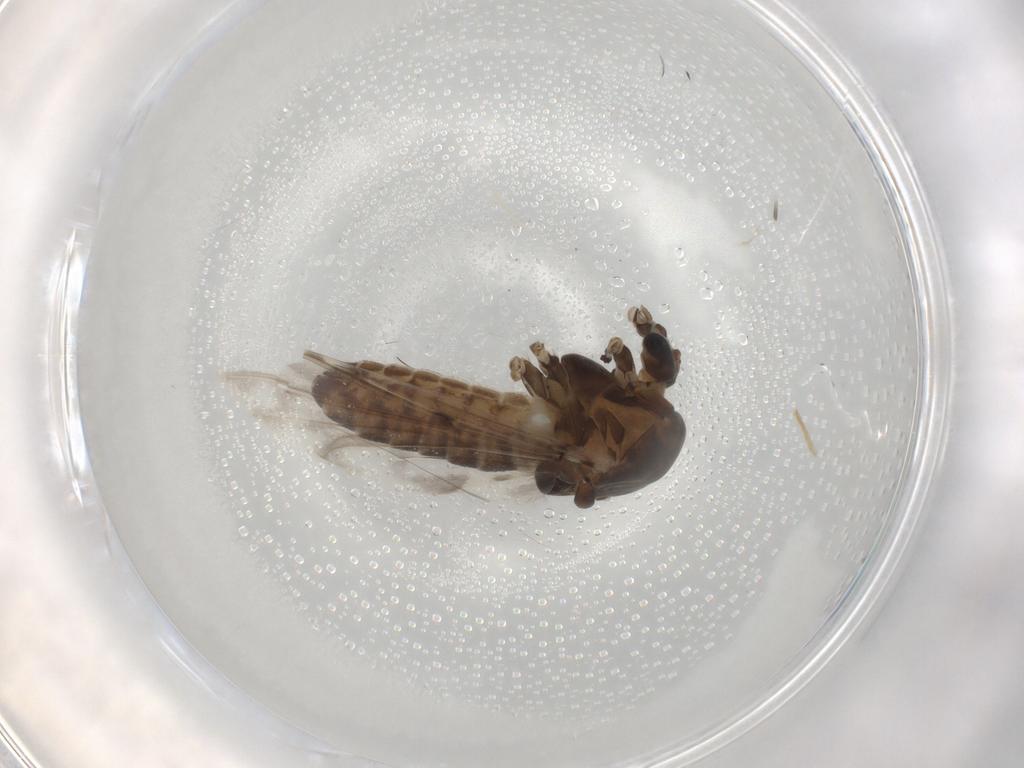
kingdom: Animalia
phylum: Arthropoda
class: Insecta
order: Diptera
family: Chironomidae
